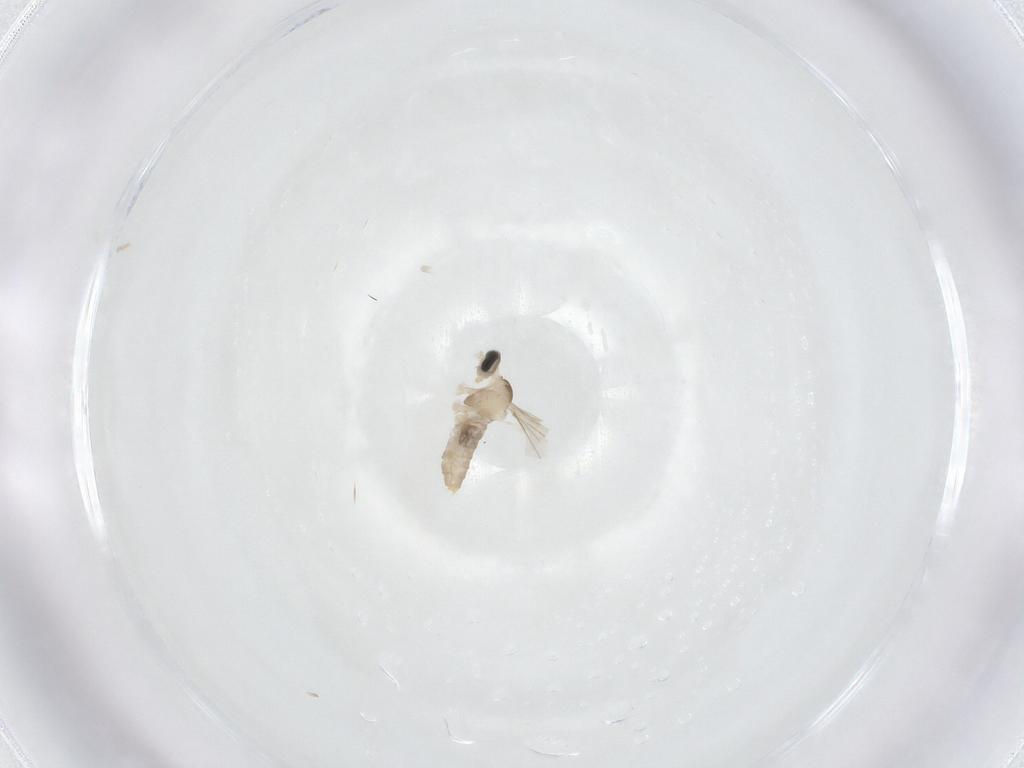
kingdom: Animalia
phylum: Arthropoda
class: Insecta
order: Diptera
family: Cecidomyiidae
